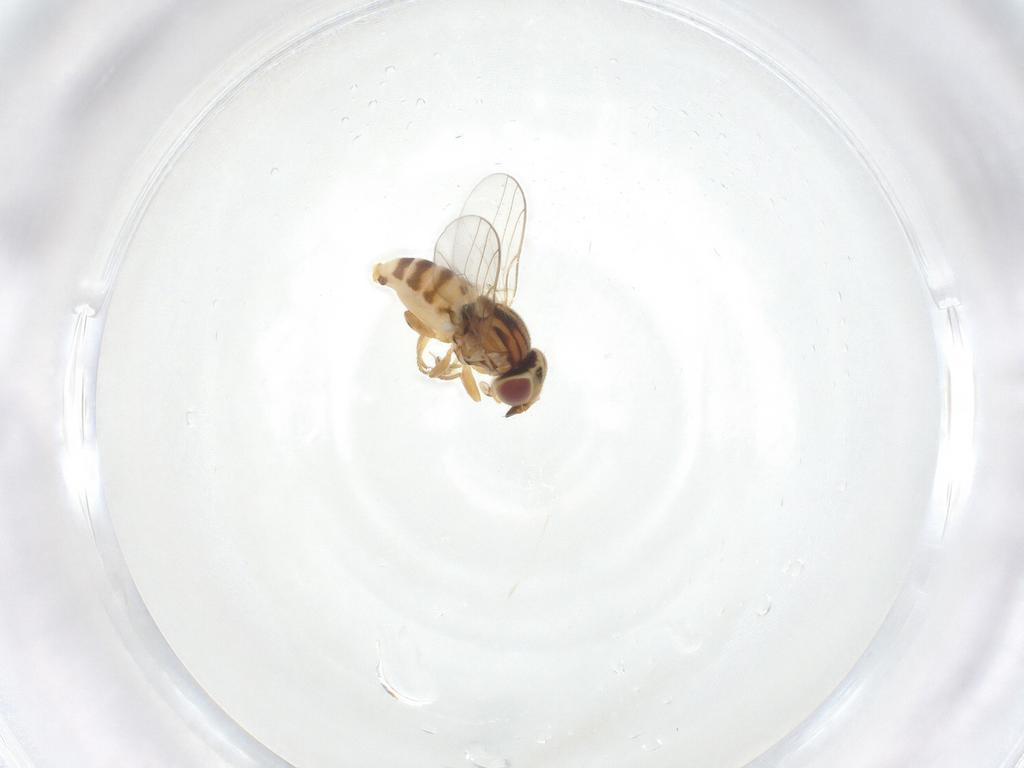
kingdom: Animalia
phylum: Arthropoda
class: Insecta
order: Diptera
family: Chloropidae
